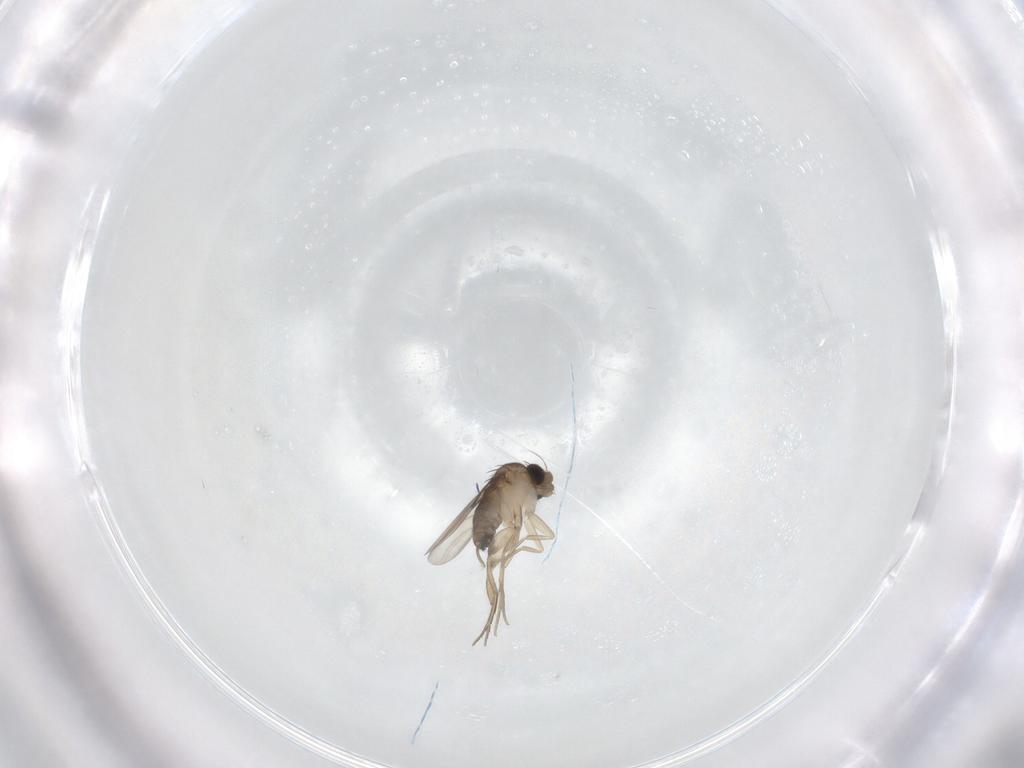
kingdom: Animalia
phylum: Arthropoda
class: Insecta
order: Diptera
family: Phoridae
